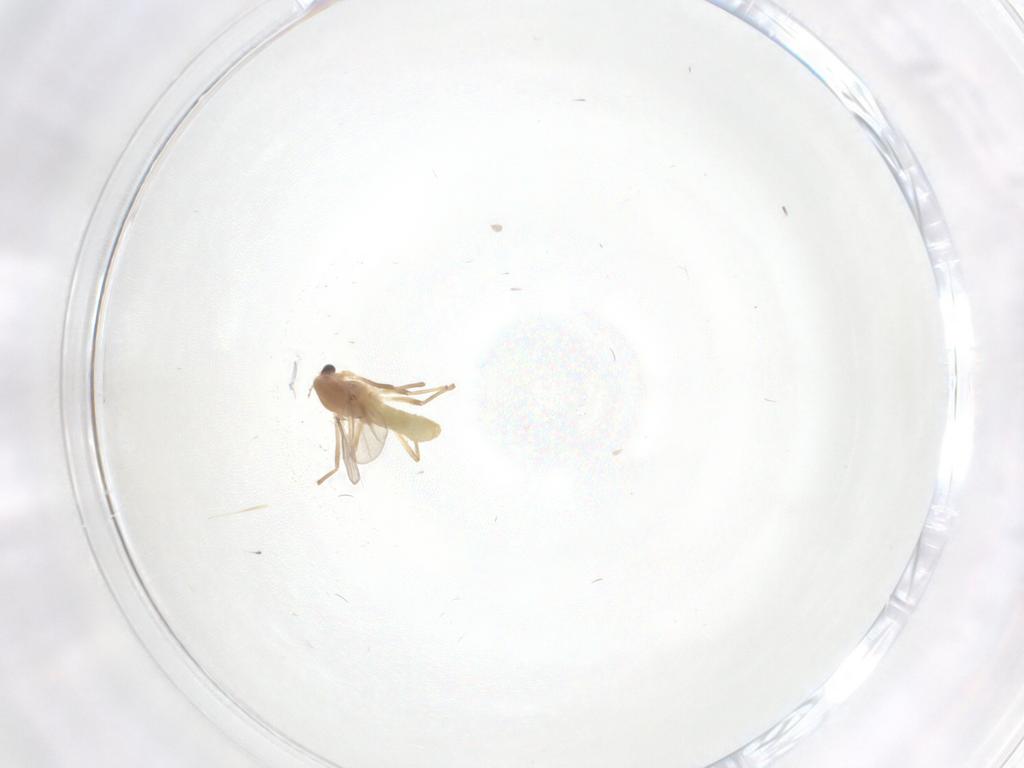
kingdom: Animalia
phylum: Arthropoda
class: Insecta
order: Diptera
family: Chironomidae
